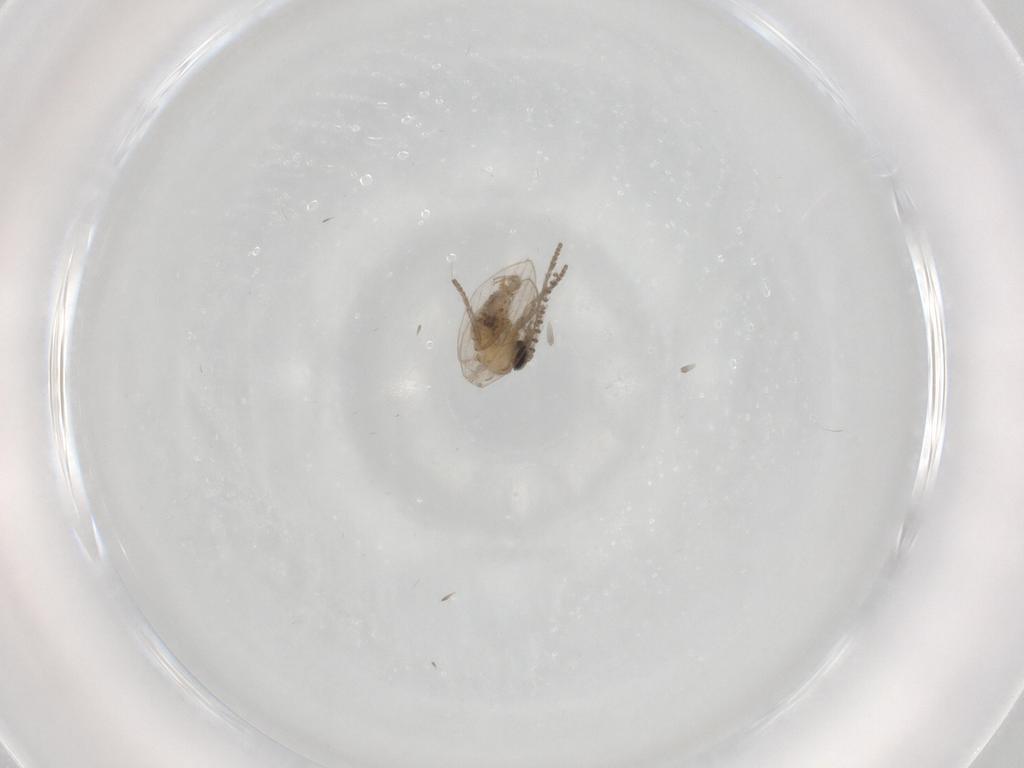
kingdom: Animalia
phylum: Arthropoda
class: Insecta
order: Diptera
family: Psychodidae
